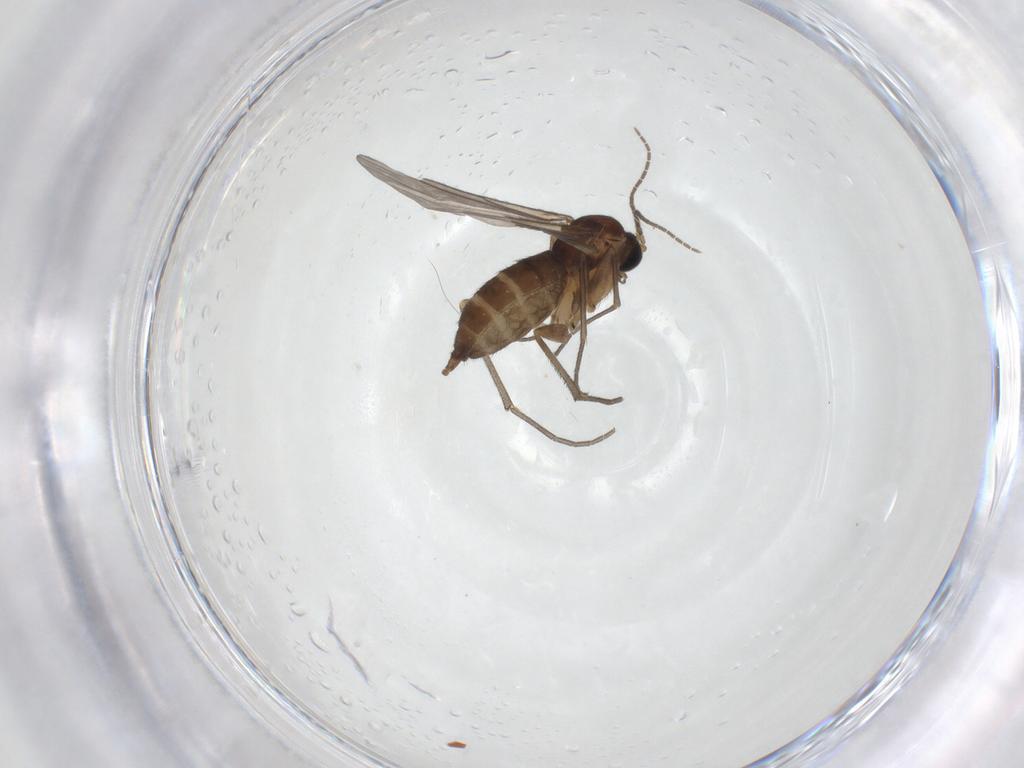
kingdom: Animalia
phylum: Arthropoda
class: Insecta
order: Diptera
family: Sciaridae
